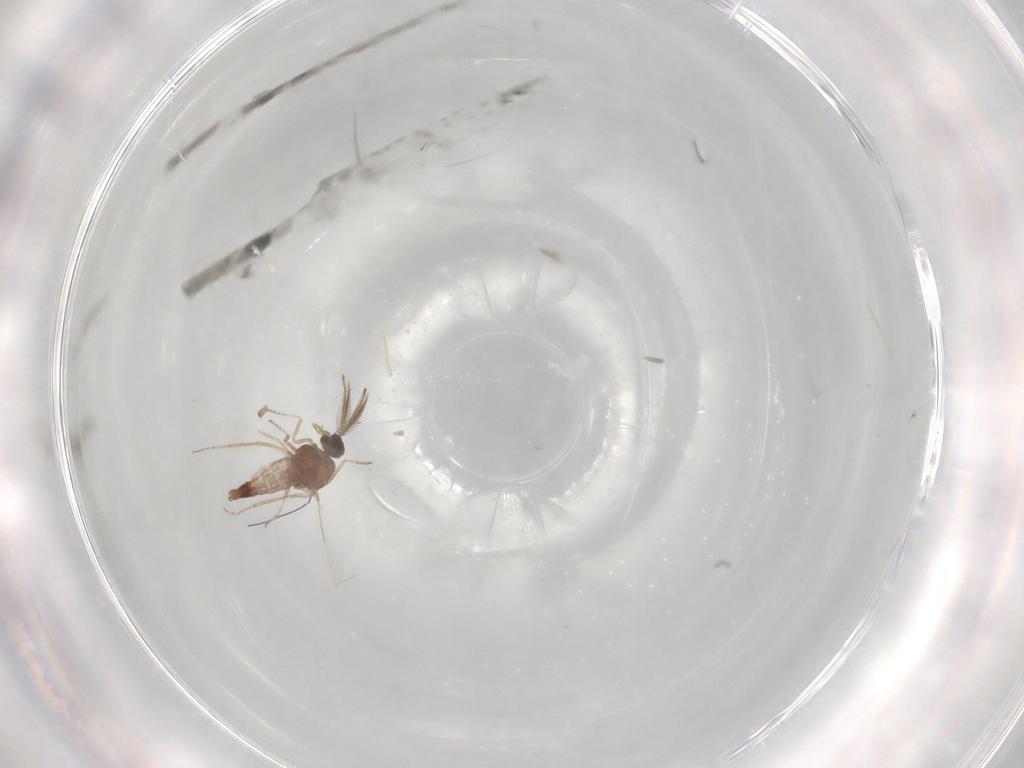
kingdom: Animalia
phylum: Arthropoda
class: Insecta
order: Diptera
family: Ceratopogonidae
